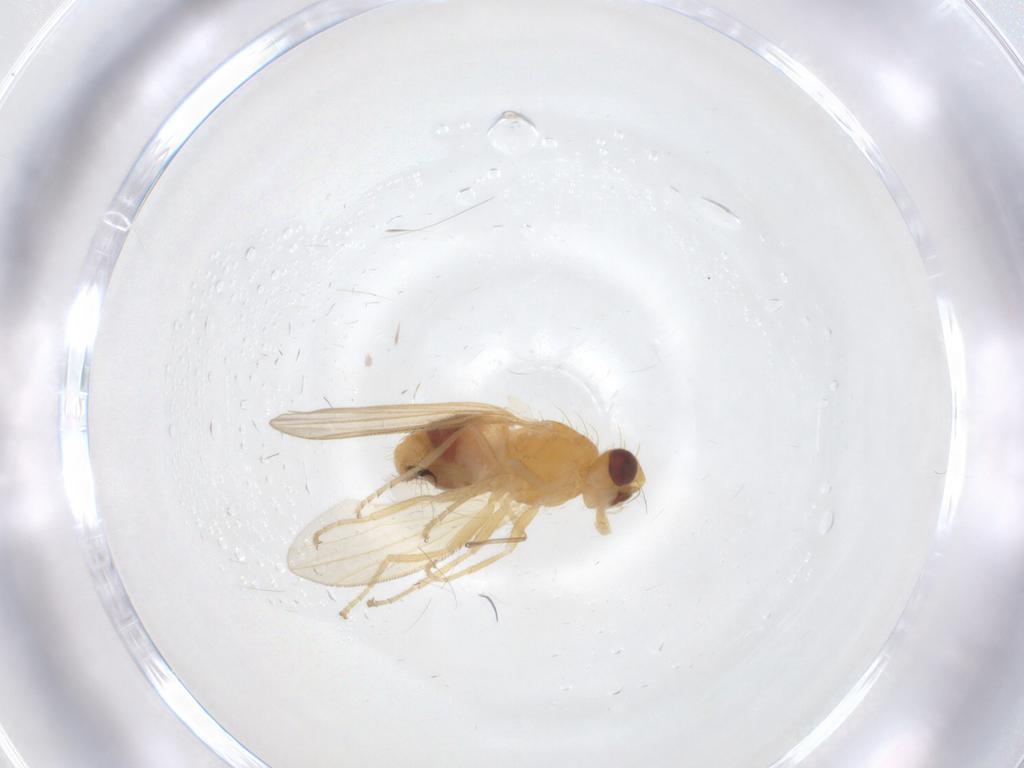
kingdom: Animalia
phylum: Arthropoda
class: Insecta
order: Diptera
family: Heleomyzidae
